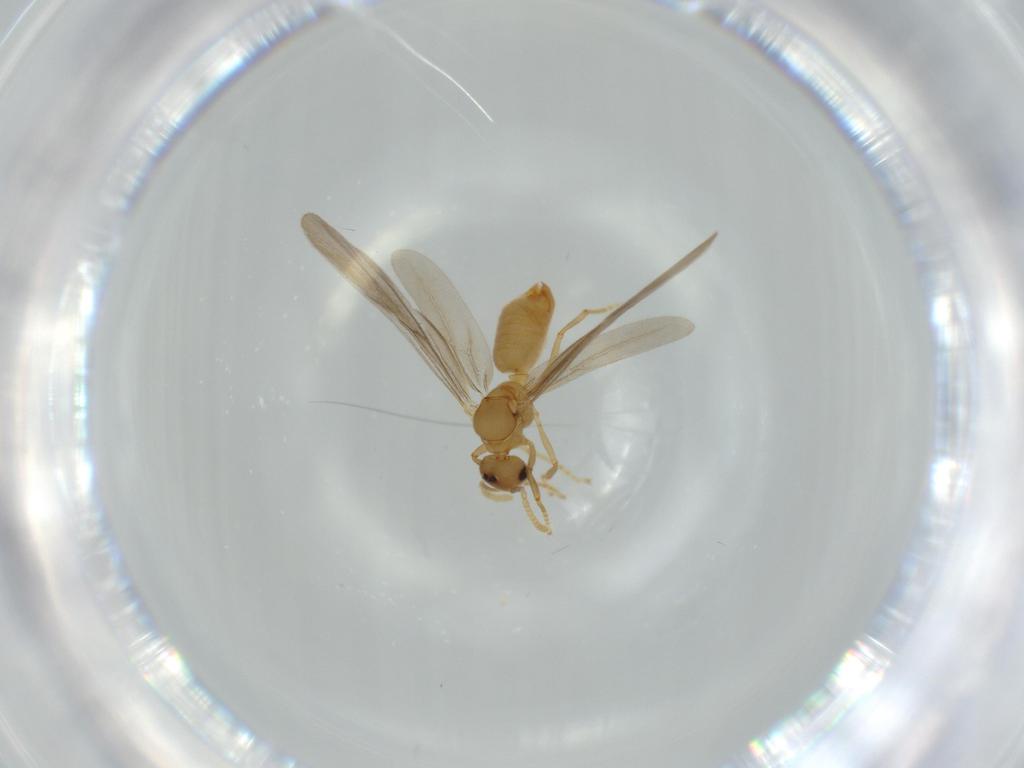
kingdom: Animalia
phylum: Arthropoda
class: Insecta
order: Hymenoptera
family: Formicidae
